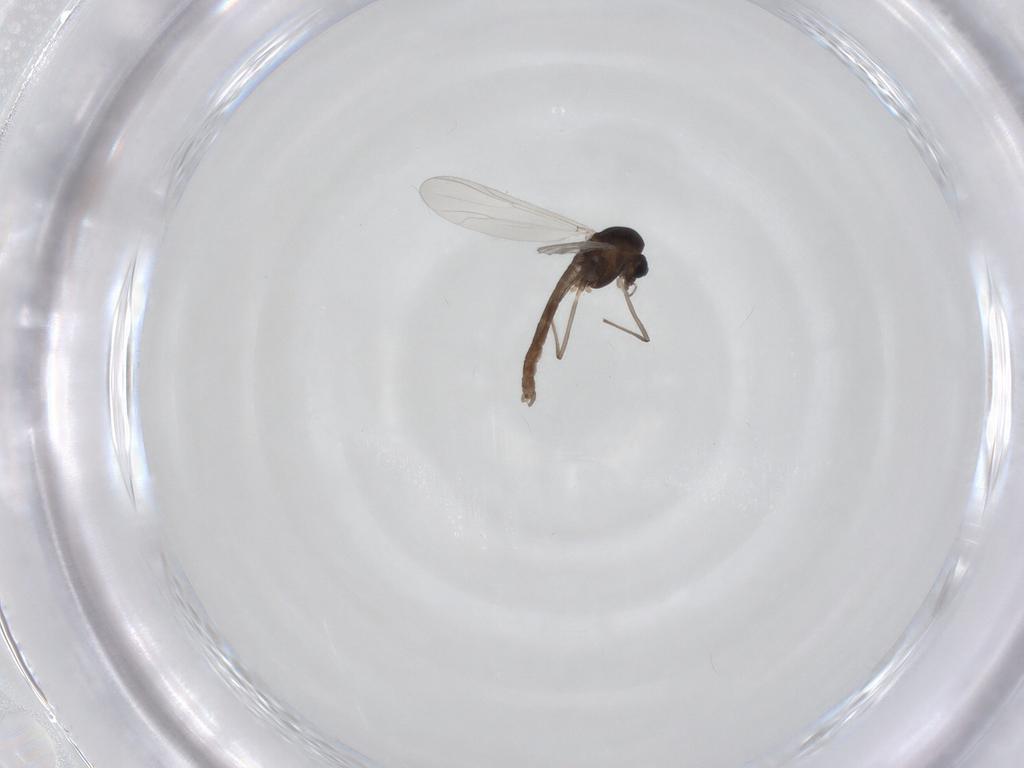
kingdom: Animalia
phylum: Arthropoda
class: Insecta
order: Diptera
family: Chironomidae
